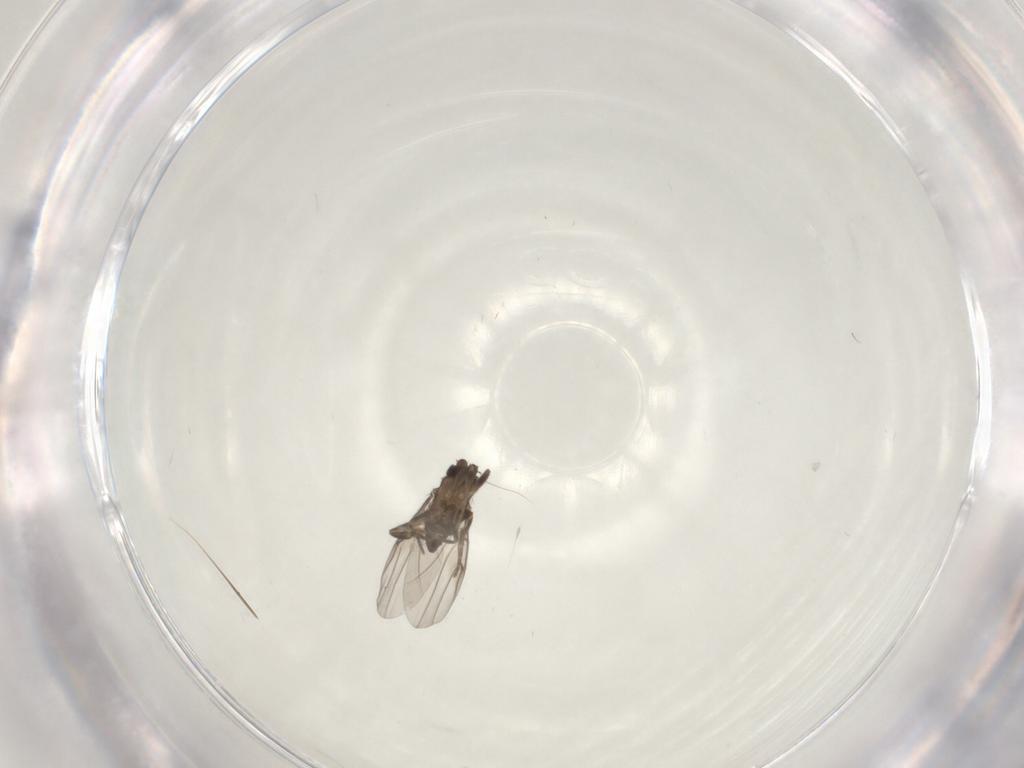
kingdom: Animalia
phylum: Arthropoda
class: Insecta
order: Diptera
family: Phoridae
